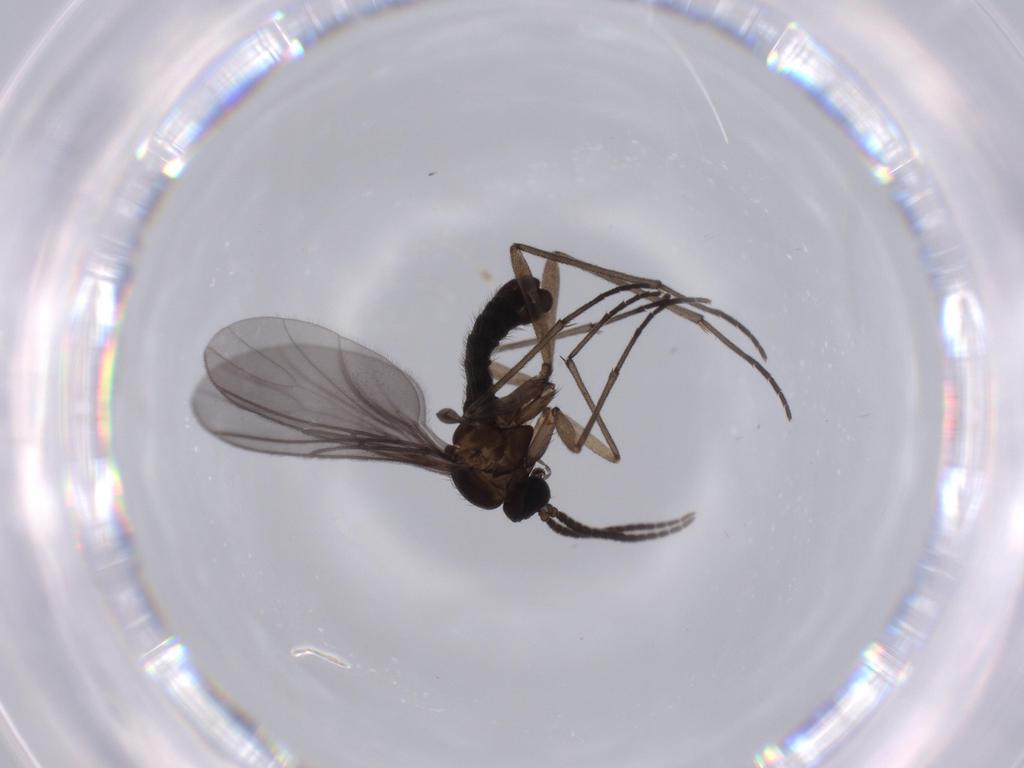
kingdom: Animalia
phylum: Arthropoda
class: Insecta
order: Diptera
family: Sciaridae
